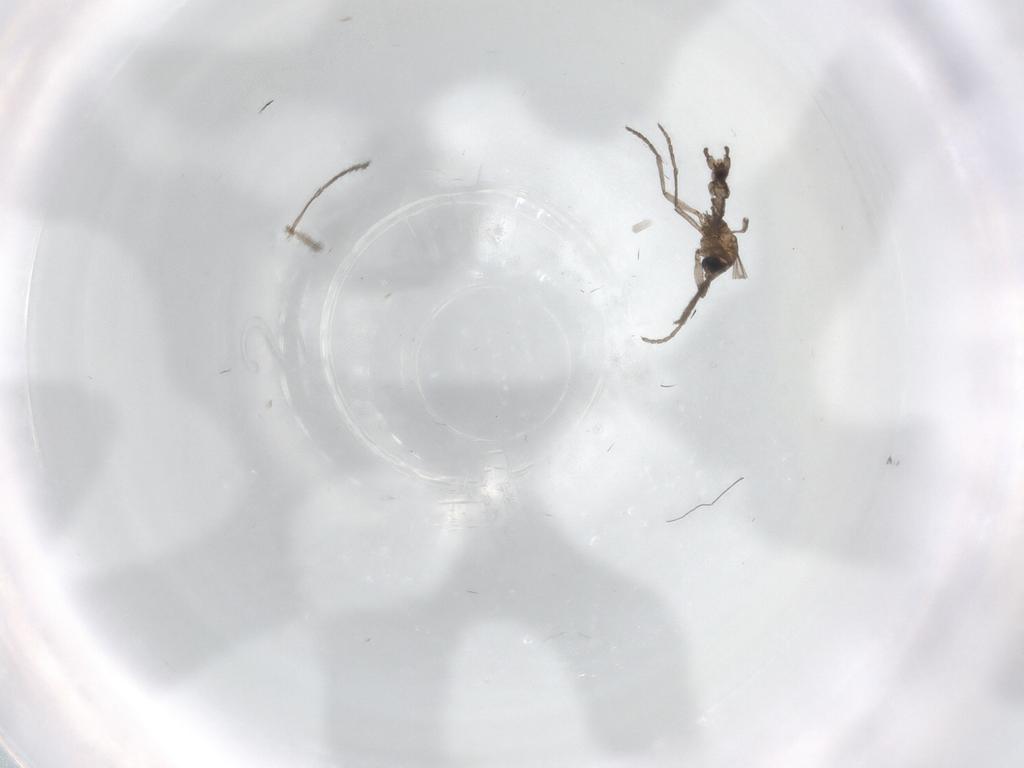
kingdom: Animalia
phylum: Arthropoda
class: Insecta
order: Diptera
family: Sciaridae
